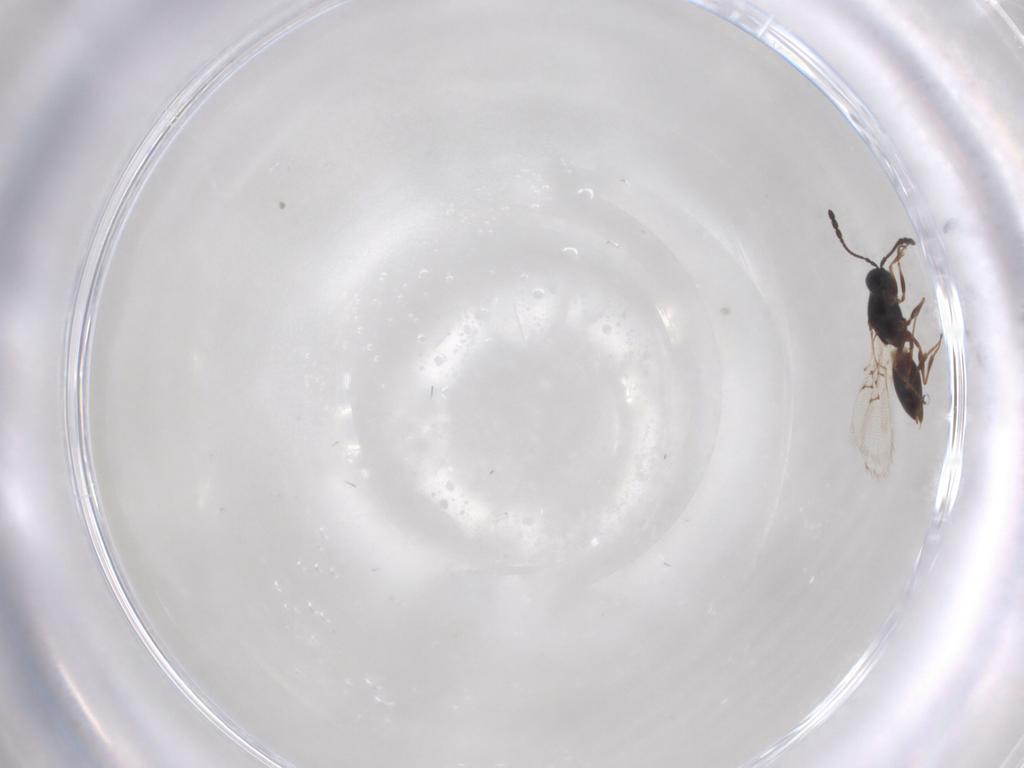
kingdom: Animalia
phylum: Arthropoda
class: Insecta
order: Hymenoptera
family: Figitidae
